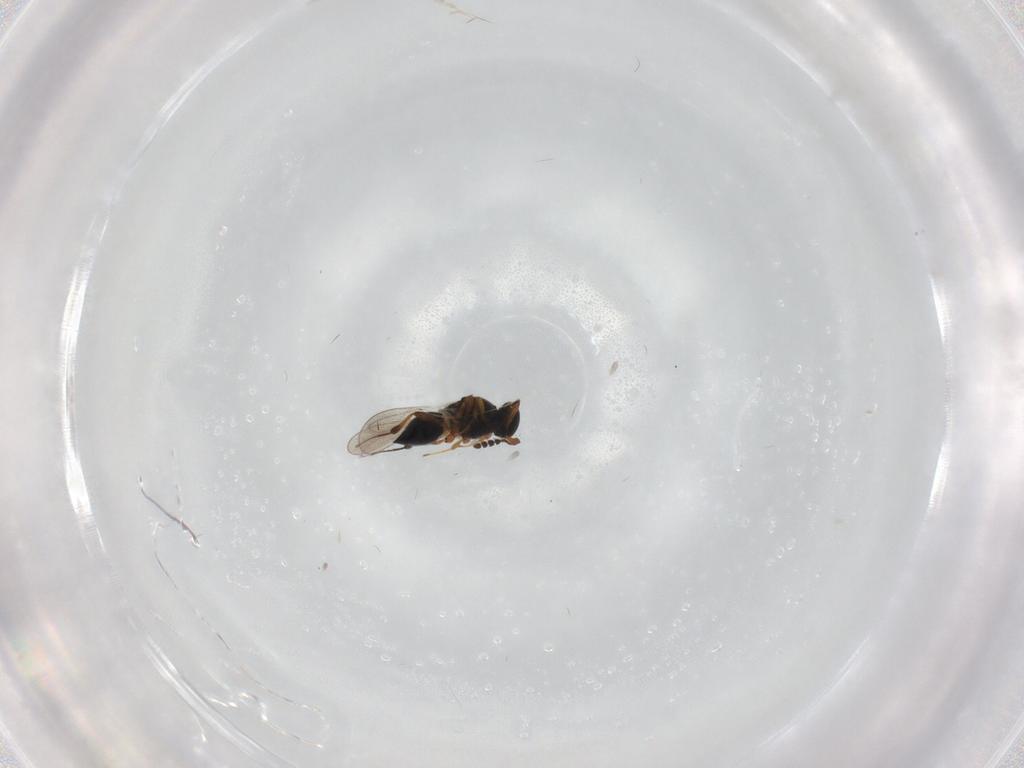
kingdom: Animalia
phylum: Arthropoda
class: Insecta
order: Hymenoptera
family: Platygastridae
